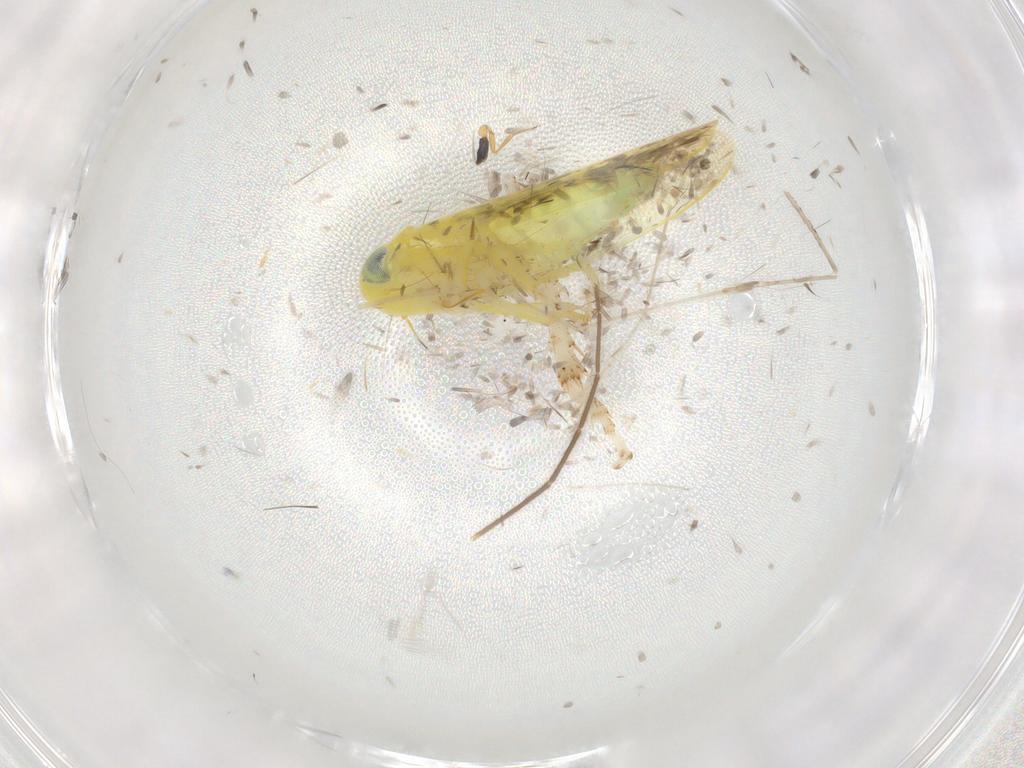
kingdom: Animalia
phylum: Arthropoda
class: Insecta
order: Hemiptera
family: Cicadellidae
